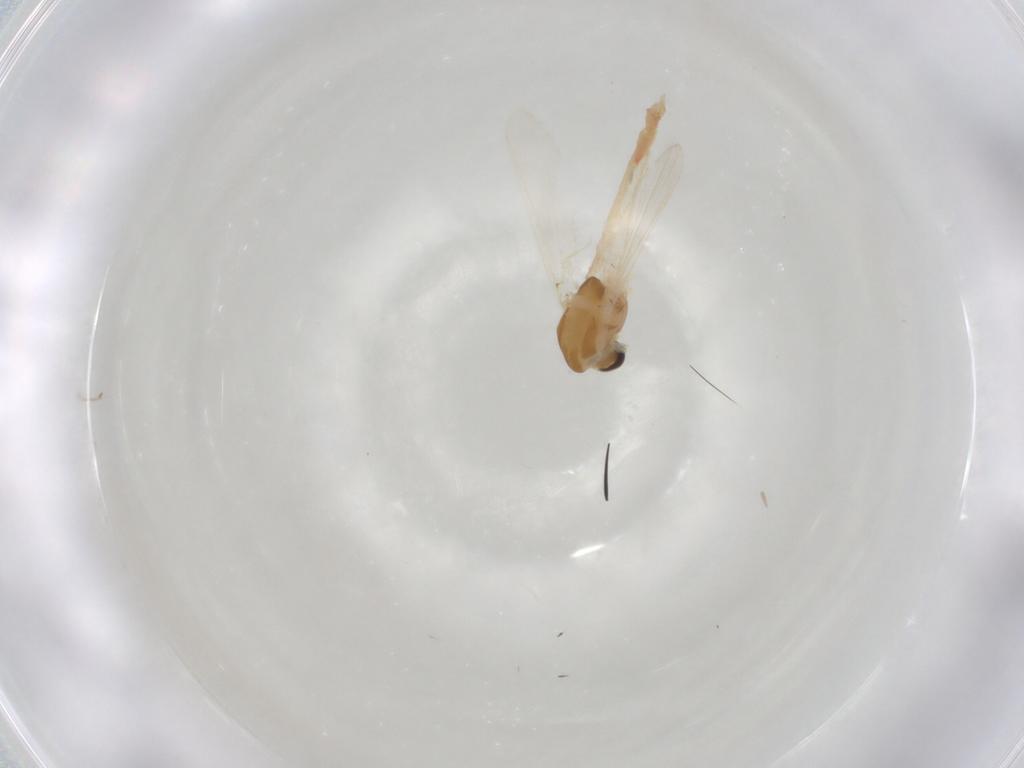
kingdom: Animalia
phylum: Arthropoda
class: Insecta
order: Diptera
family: Chironomidae
